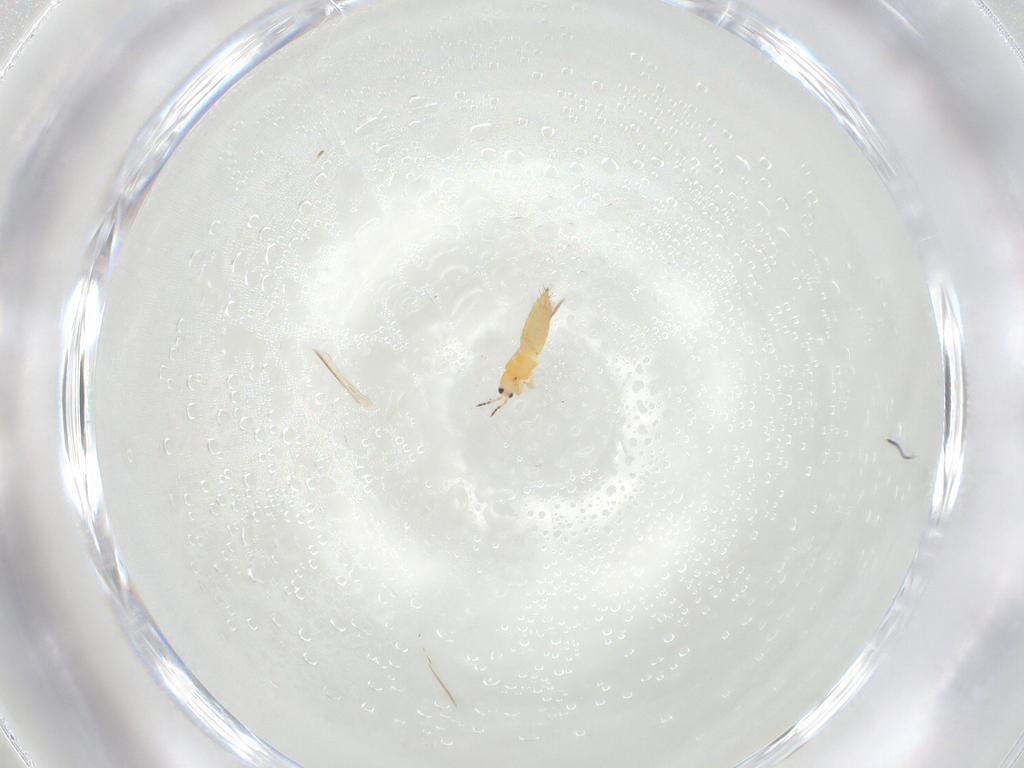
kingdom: Animalia
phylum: Arthropoda
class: Insecta
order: Thysanoptera
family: Thripidae
